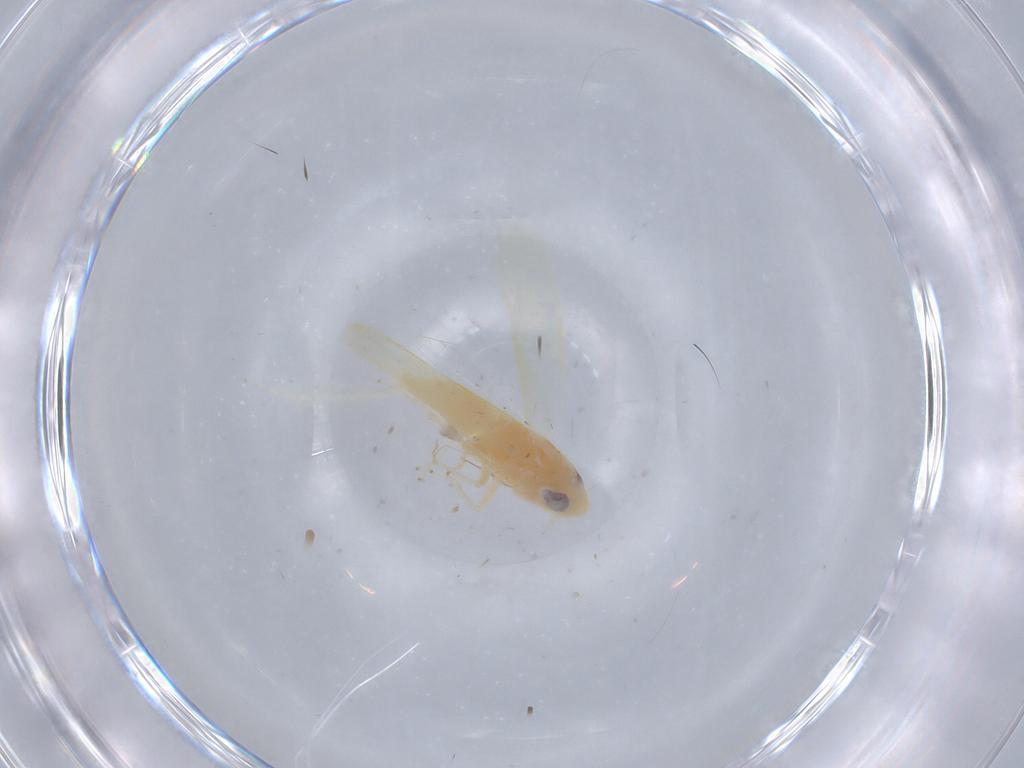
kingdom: Animalia
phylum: Arthropoda
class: Insecta
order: Hemiptera
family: Cicadellidae
